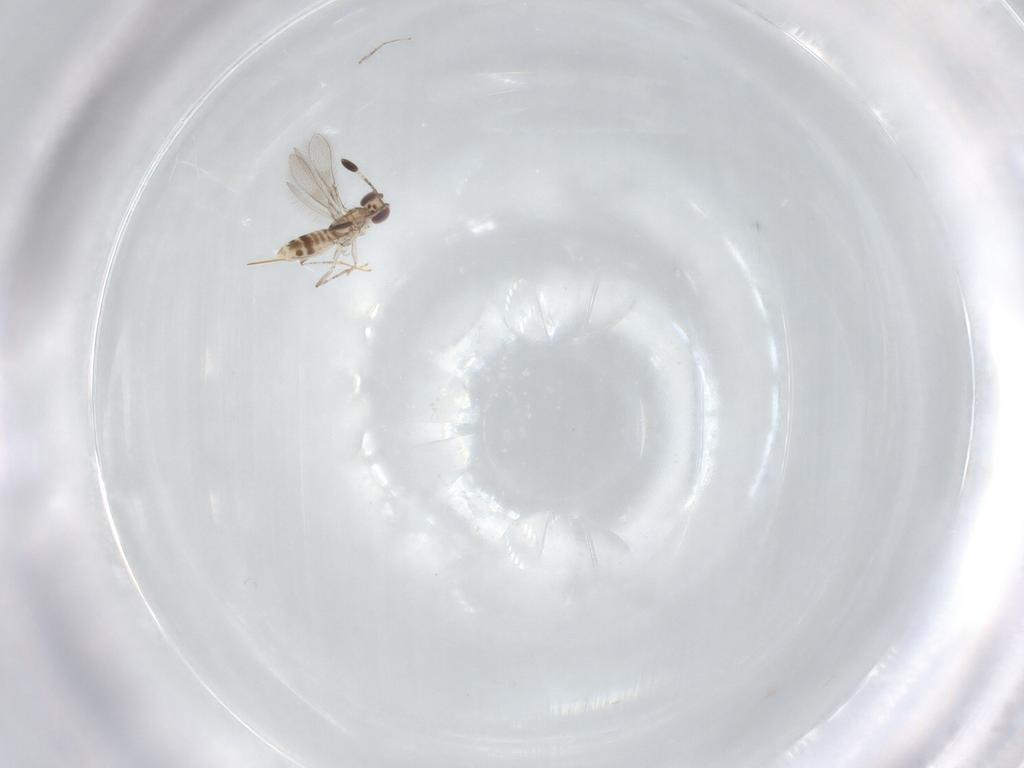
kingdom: Animalia
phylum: Arthropoda
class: Insecta
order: Hymenoptera
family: Mymaridae
